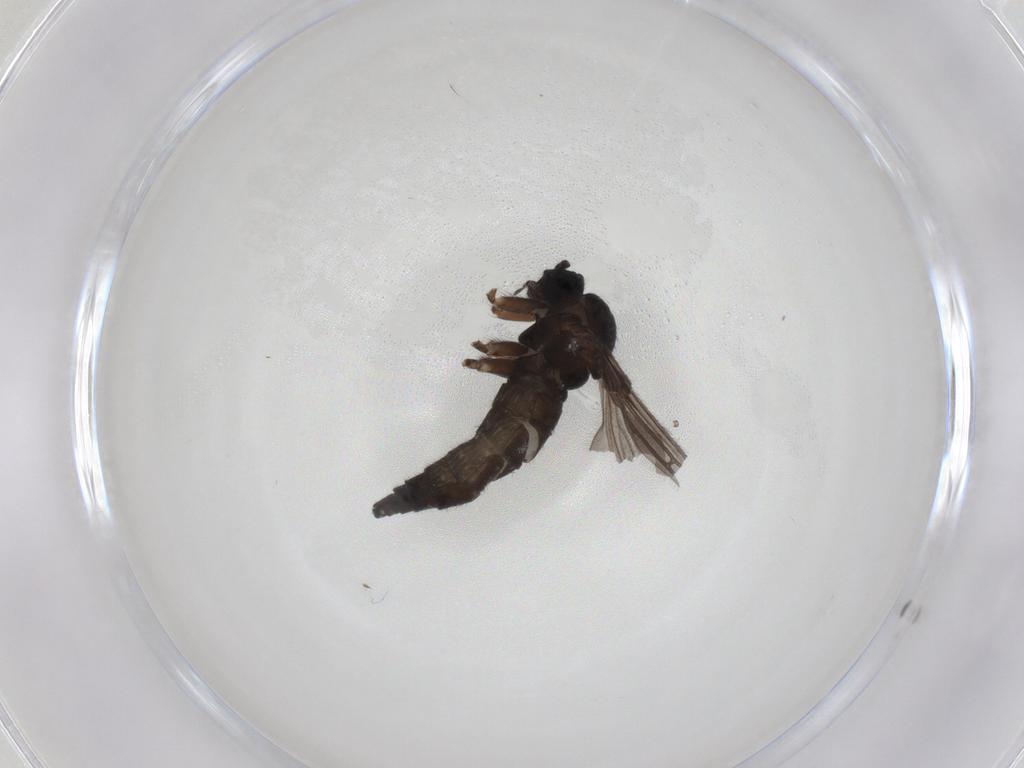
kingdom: Animalia
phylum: Arthropoda
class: Insecta
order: Diptera
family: Sciaridae
